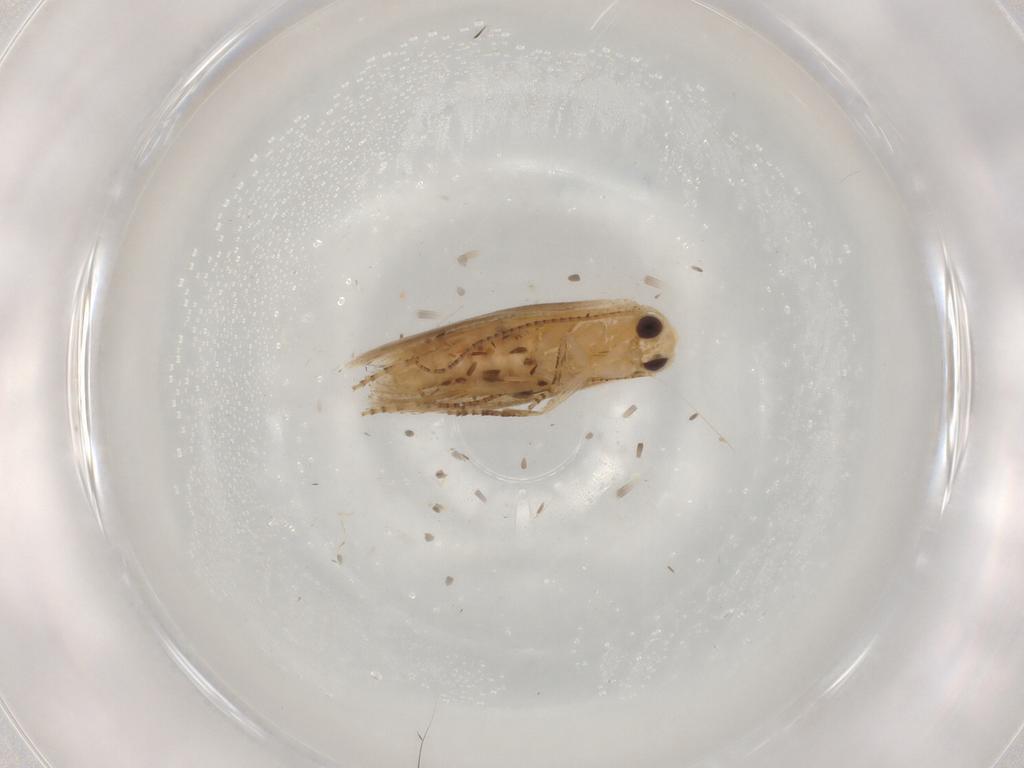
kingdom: Animalia
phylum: Arthropoda
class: Insecta
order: Lepidoptera
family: Bucculatricidae
